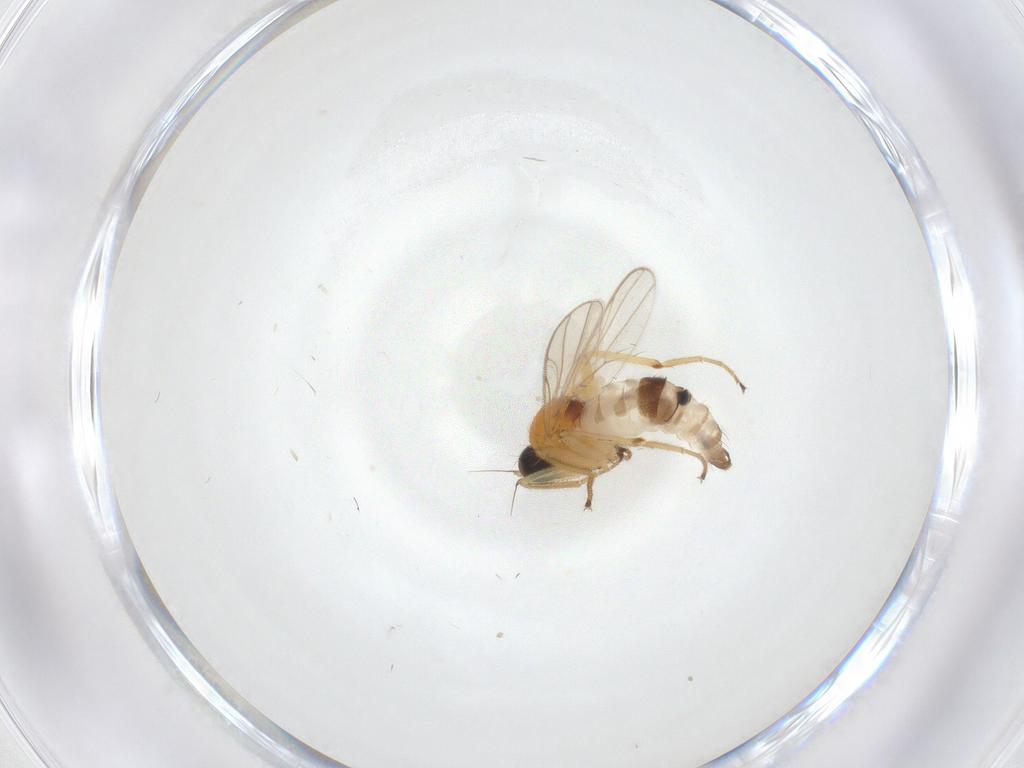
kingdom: Animalia
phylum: Arthropoda
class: Insecta
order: Diptera
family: Hybotidae
